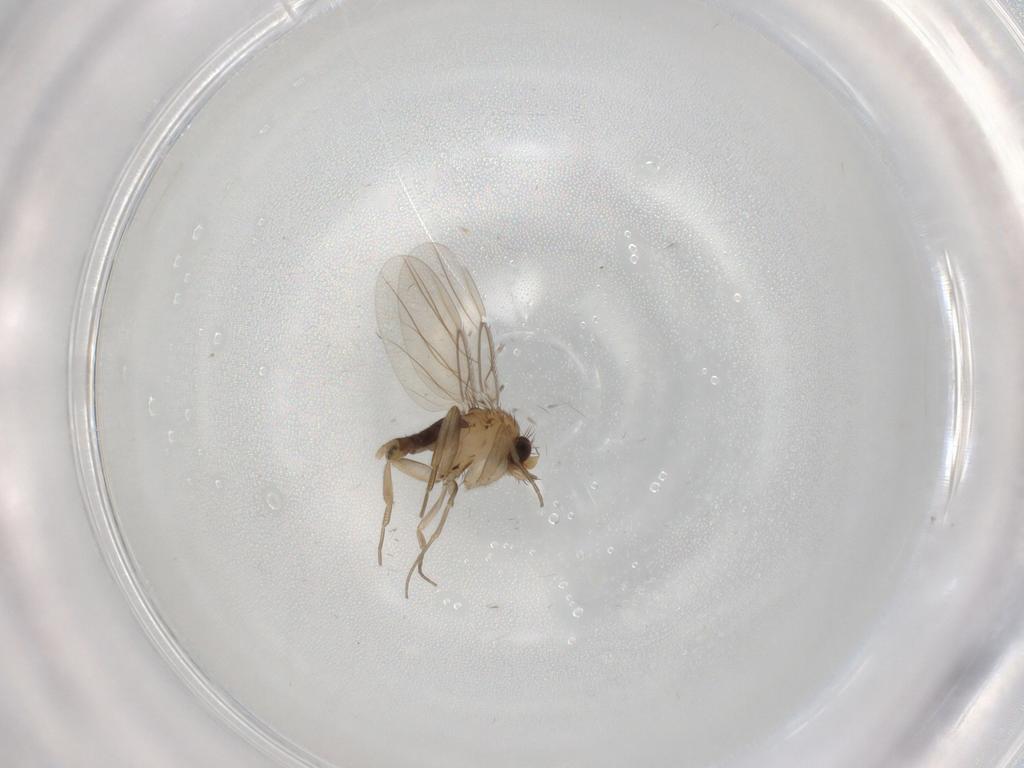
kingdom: Animalia
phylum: Arthropoda
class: Insecta
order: Diptera
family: Phoridae
